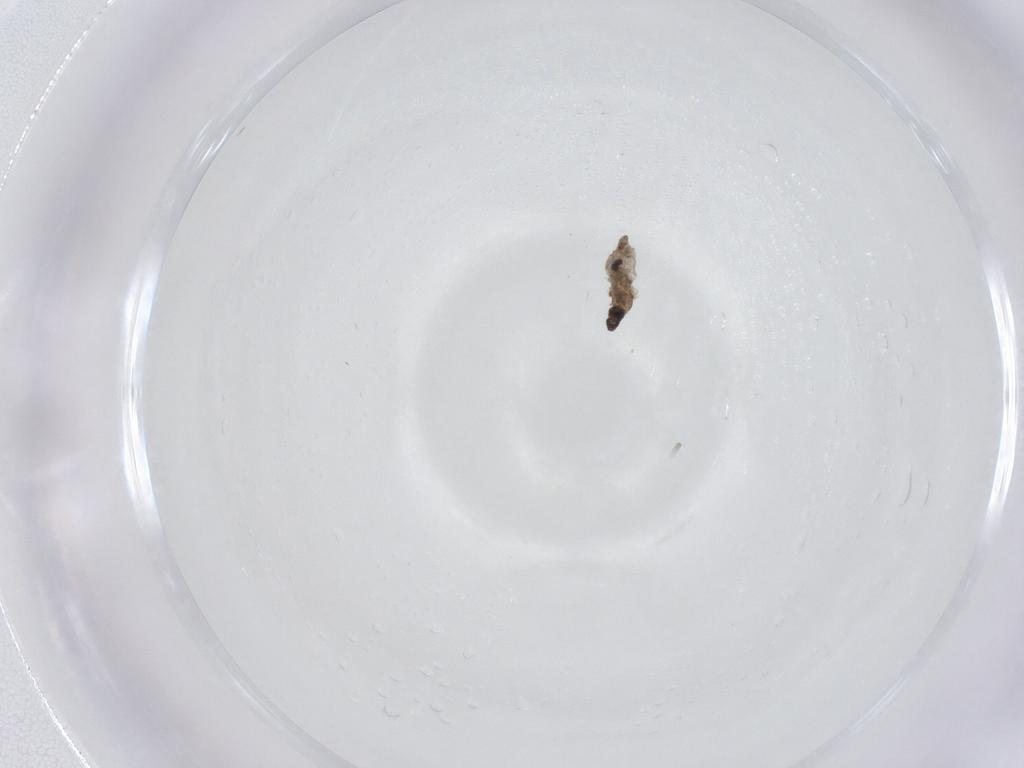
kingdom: Animalia
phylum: Arthropoda
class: Insecta
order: Diptera
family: Cecidomyiidae
